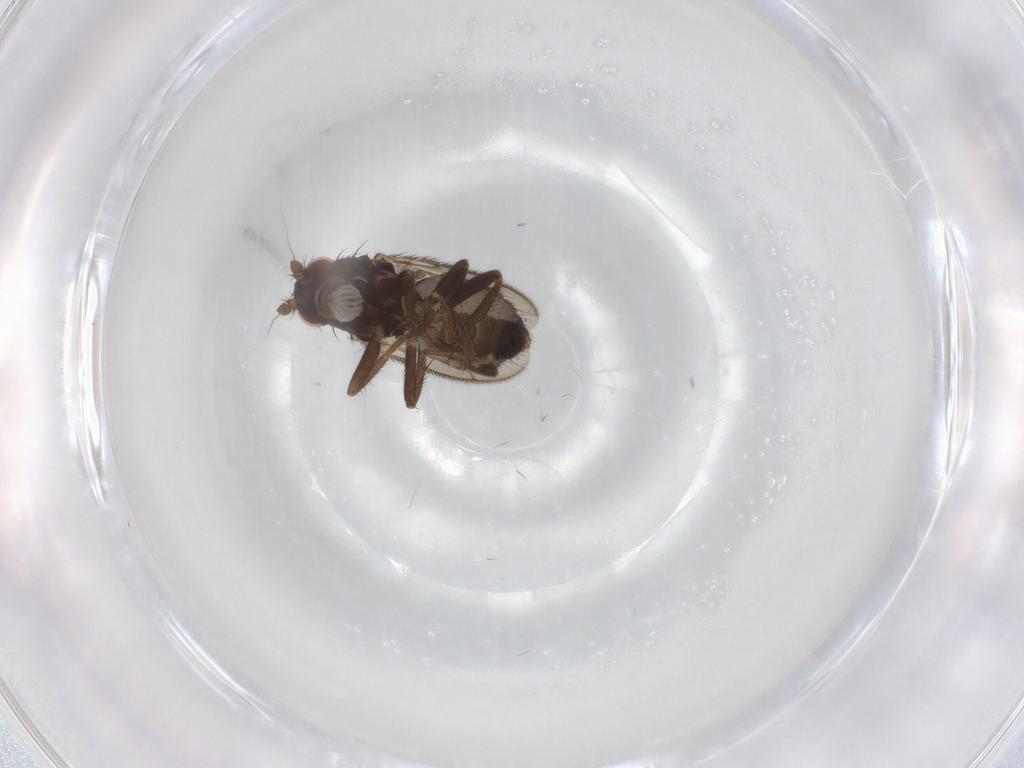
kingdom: Animalia
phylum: Arthropoda
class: Insecta
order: Diptera
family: Sphaeroceridae
